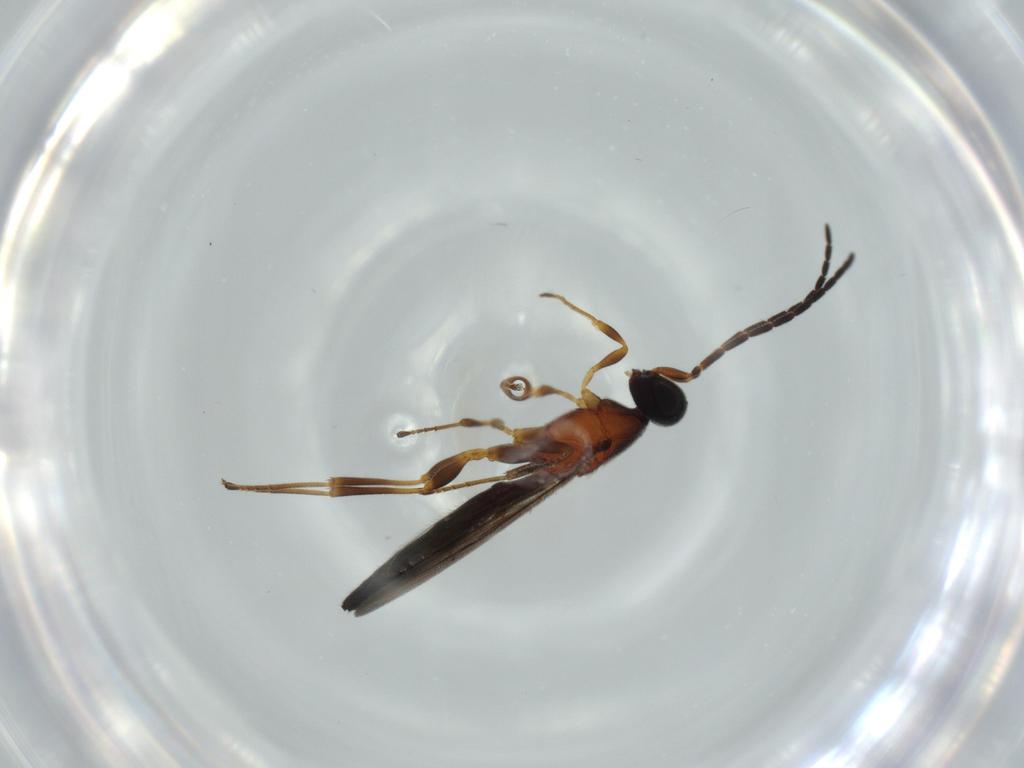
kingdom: Animalia
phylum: Arthropoda
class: Insecta
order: Hymenoptera
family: Scelionidae
